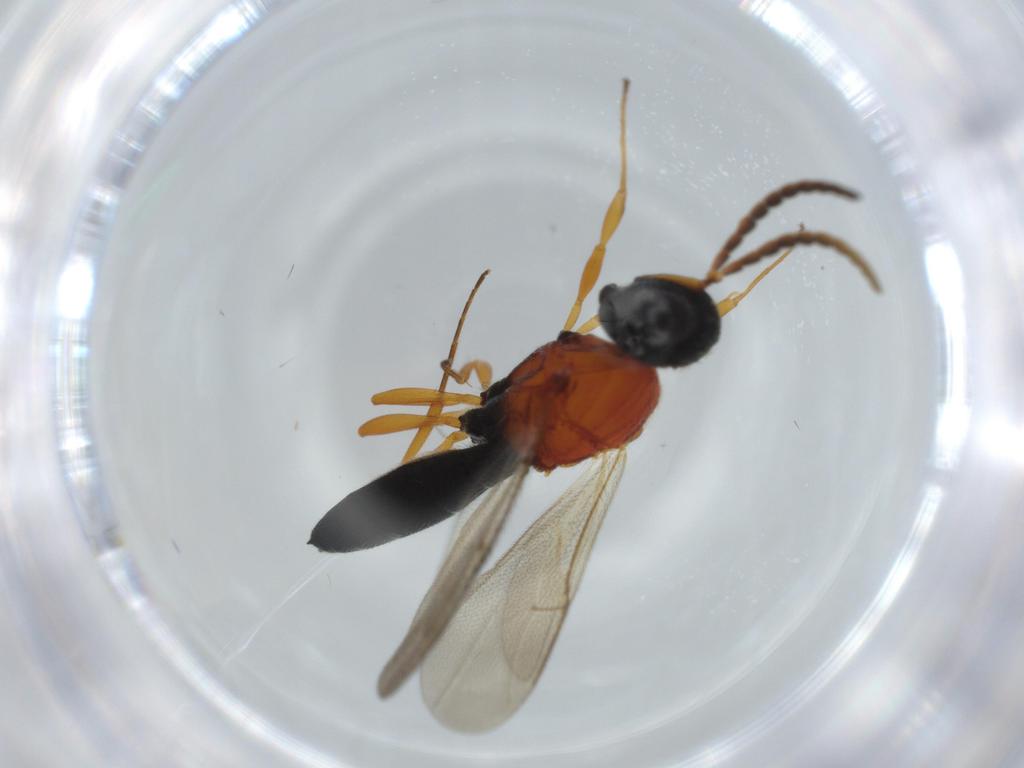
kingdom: Animalia
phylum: Arthropoda
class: Insecta
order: Hymenoptera
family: Scelionidae
